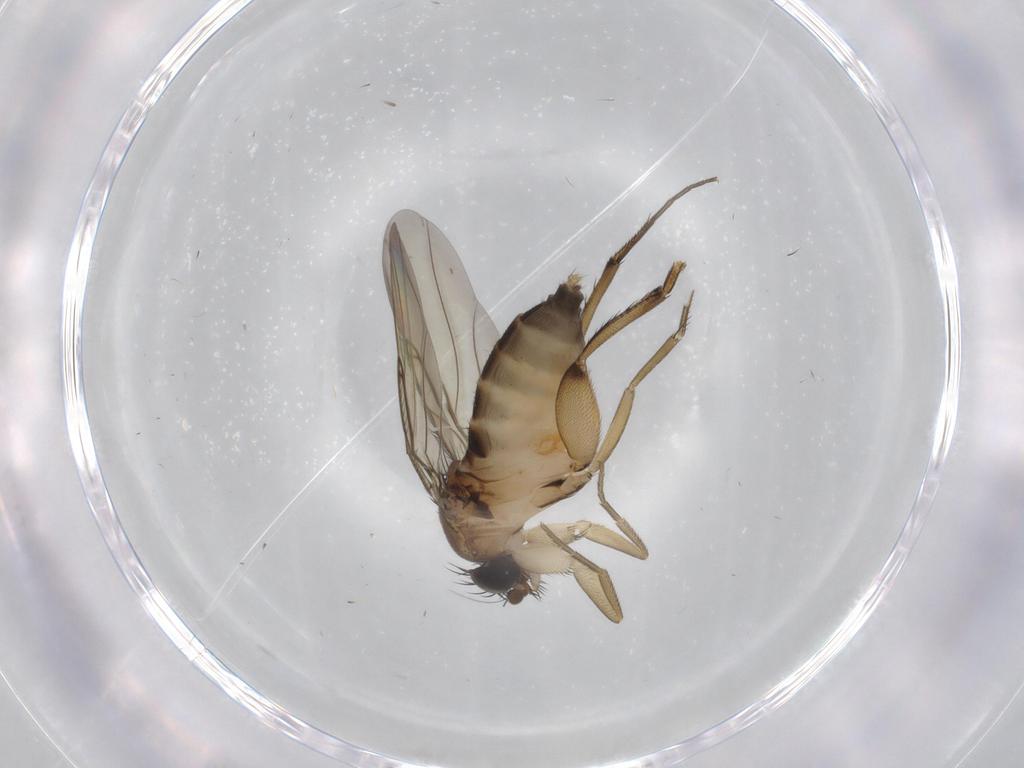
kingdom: Animalia
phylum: Arthropoda
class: Insecta
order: Diptera
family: Phoridae
